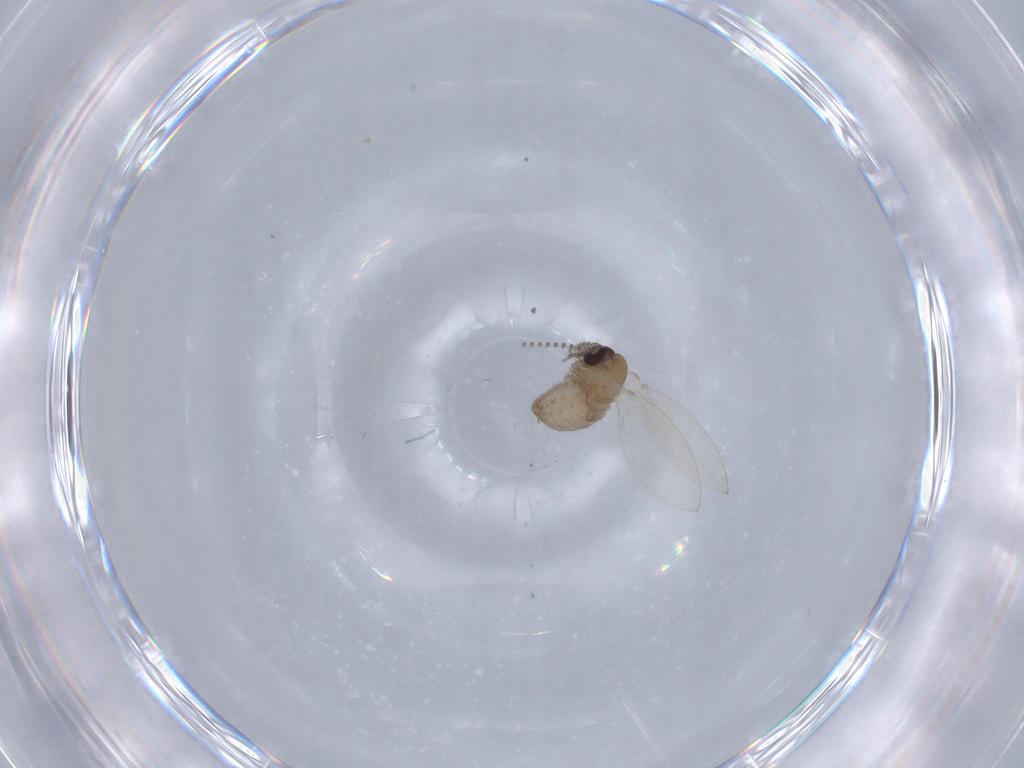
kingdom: Animalia
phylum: Arthropoda
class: Insecta
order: Diptera
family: Psychodidae
